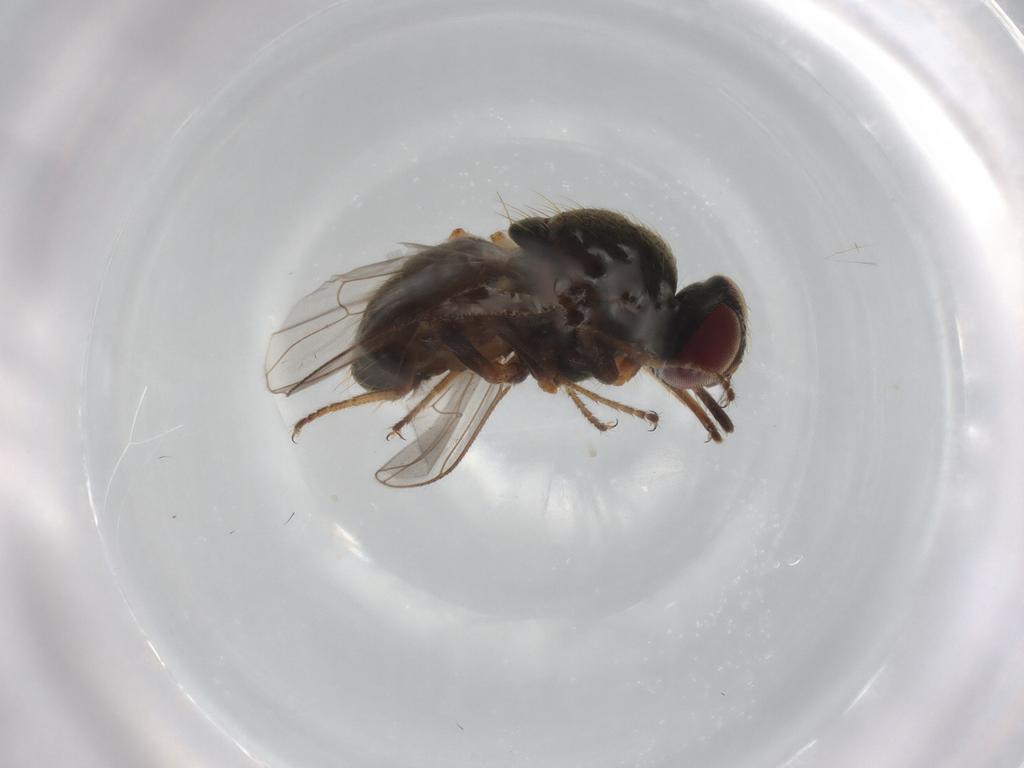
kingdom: Animalia
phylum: Arthropoda
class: Insecta
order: Diptera
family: Muscidae
